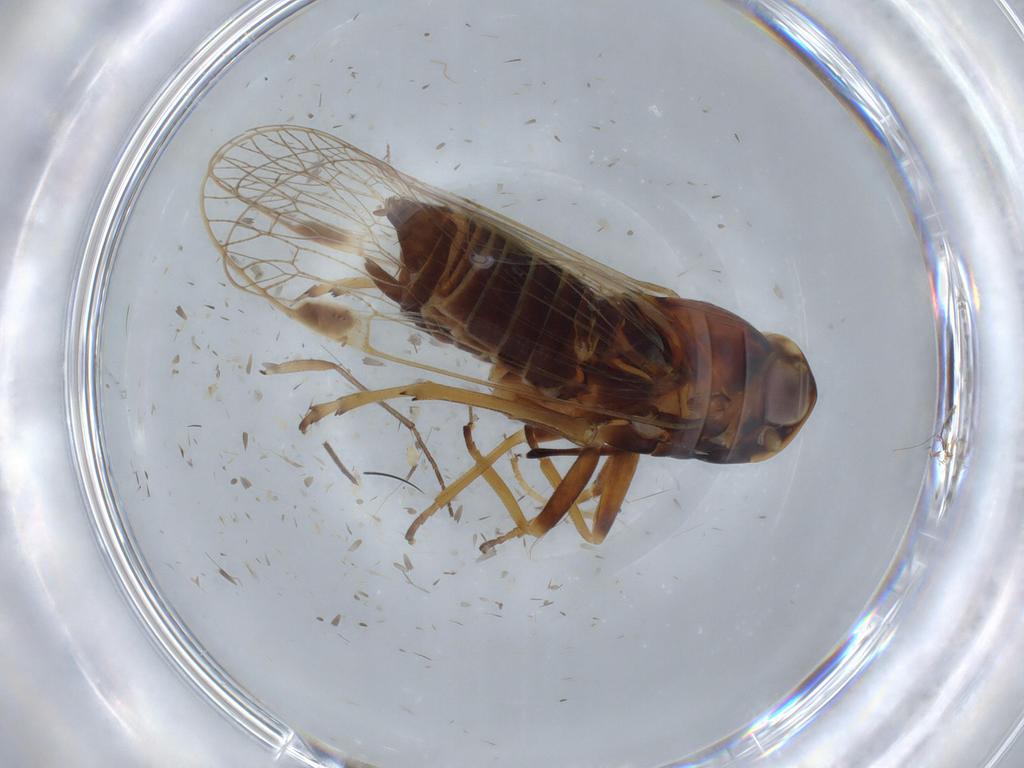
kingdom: Animalia
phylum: Arthropoda
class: Insecta
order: Hemiptera
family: Cixiidae
